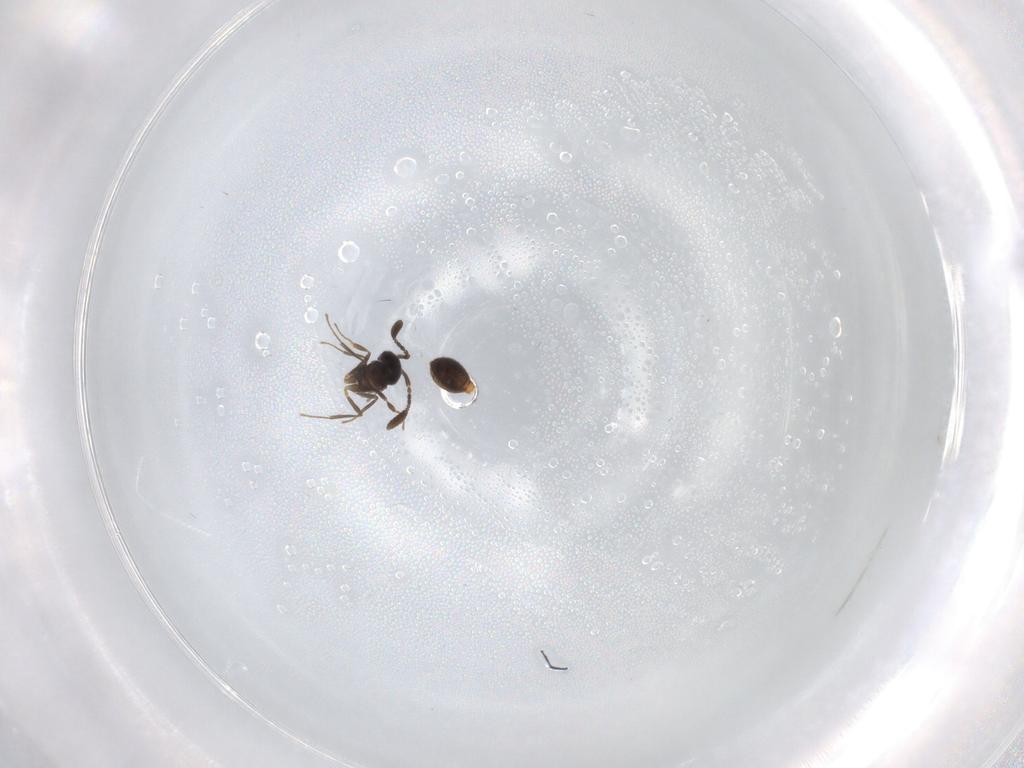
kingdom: Animalia
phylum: Arthropoda
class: Insecta
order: Hymenoptera
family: Scelionidae
